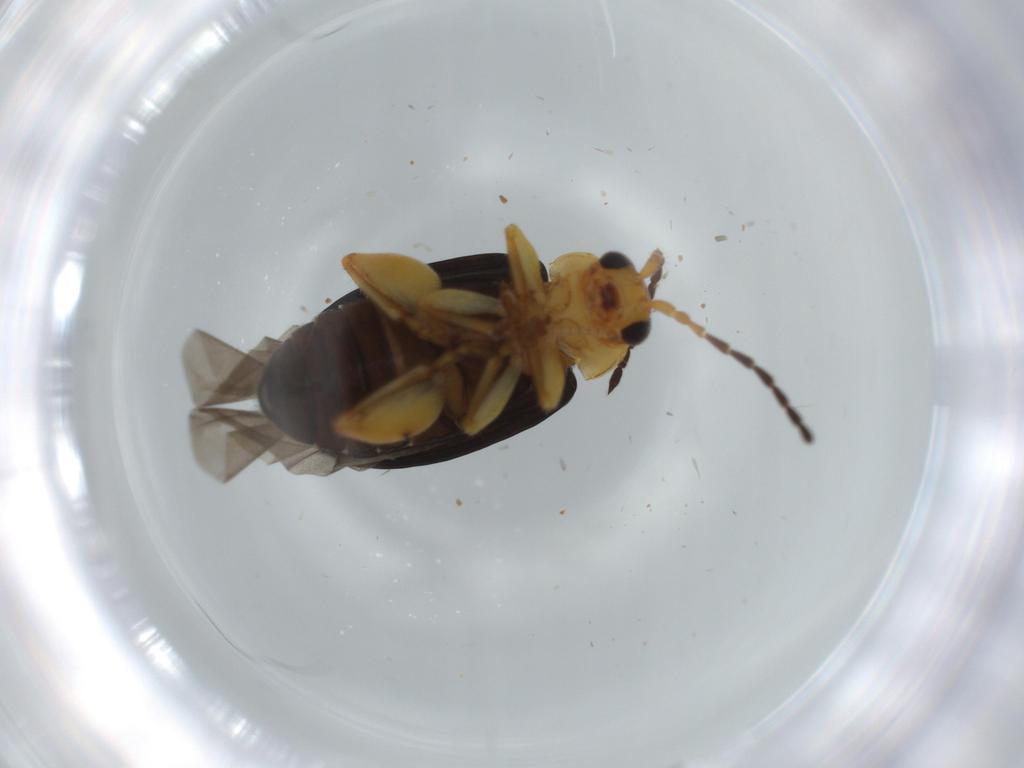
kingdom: Animalia
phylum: Arthropoda
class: Insecta
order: Coleoptera
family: Chrysomelidae
